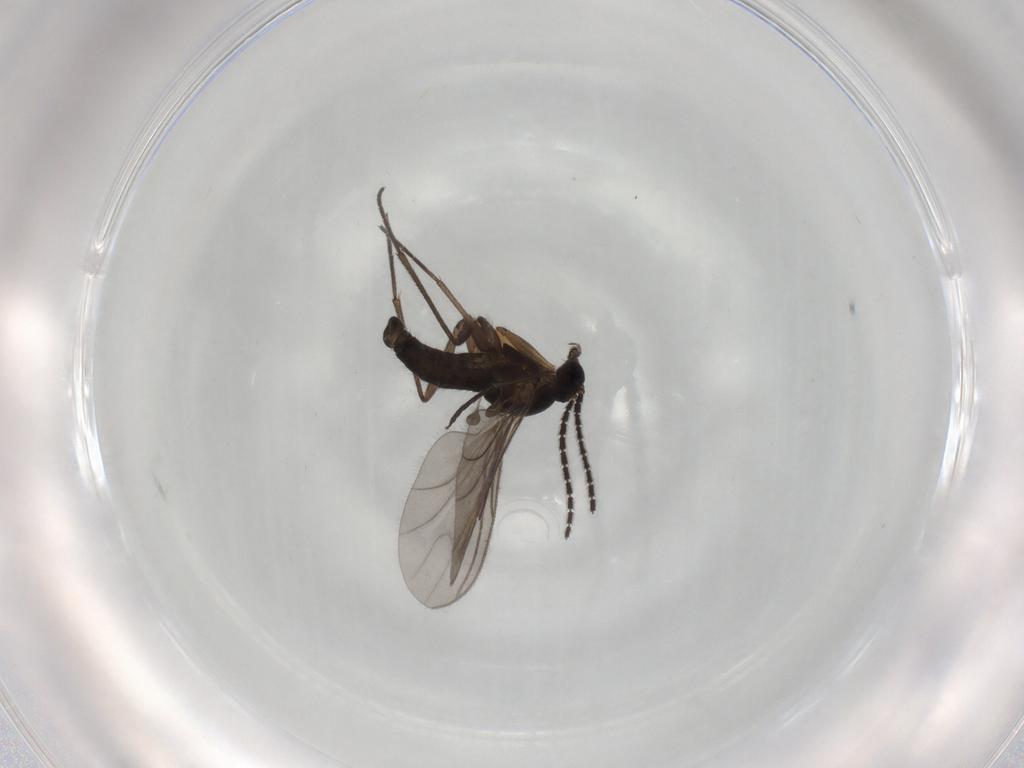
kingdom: Animalia
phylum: Arthropoda
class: Insecta
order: Diptera
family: Sciaridae
